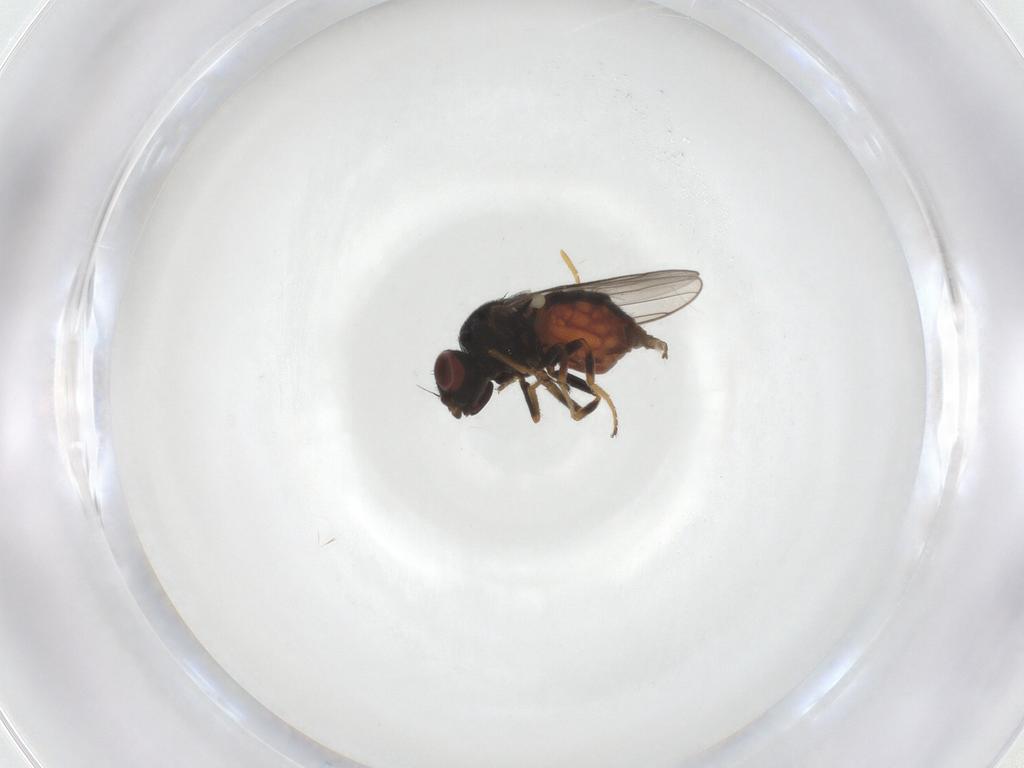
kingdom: Animalia
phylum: Arthropoda
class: Insecta
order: Diptera
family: Chloropidae
